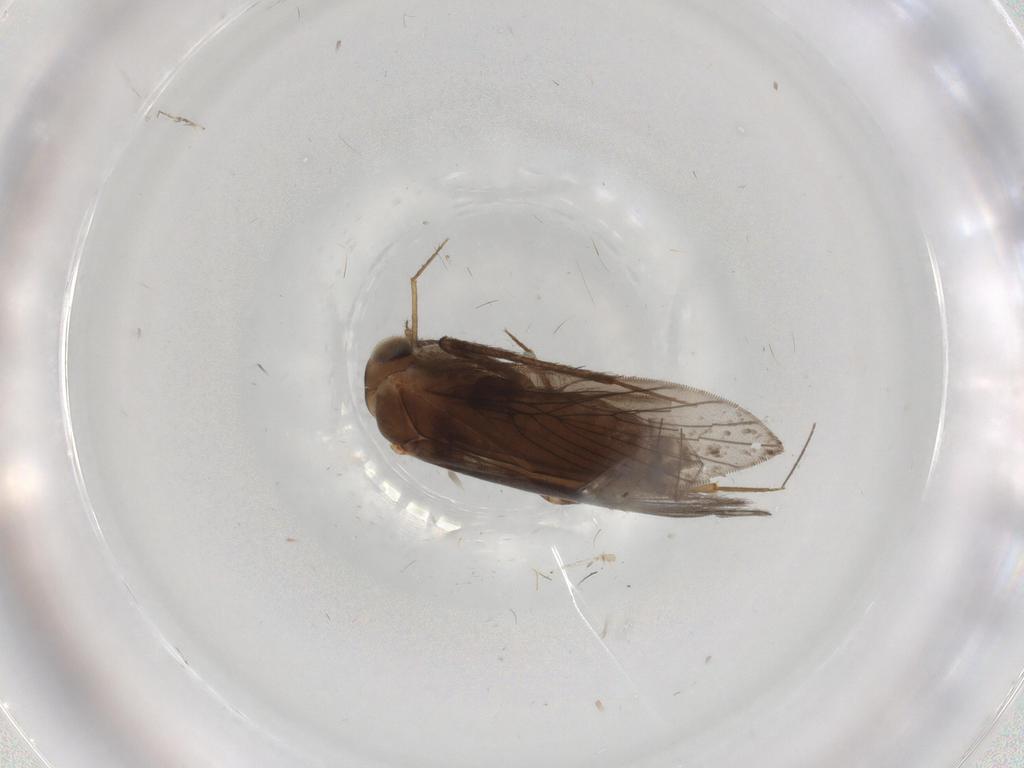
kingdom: Animalia
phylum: Arthropoda
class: Insecta
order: Psocodea
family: Lepidopsocidae
